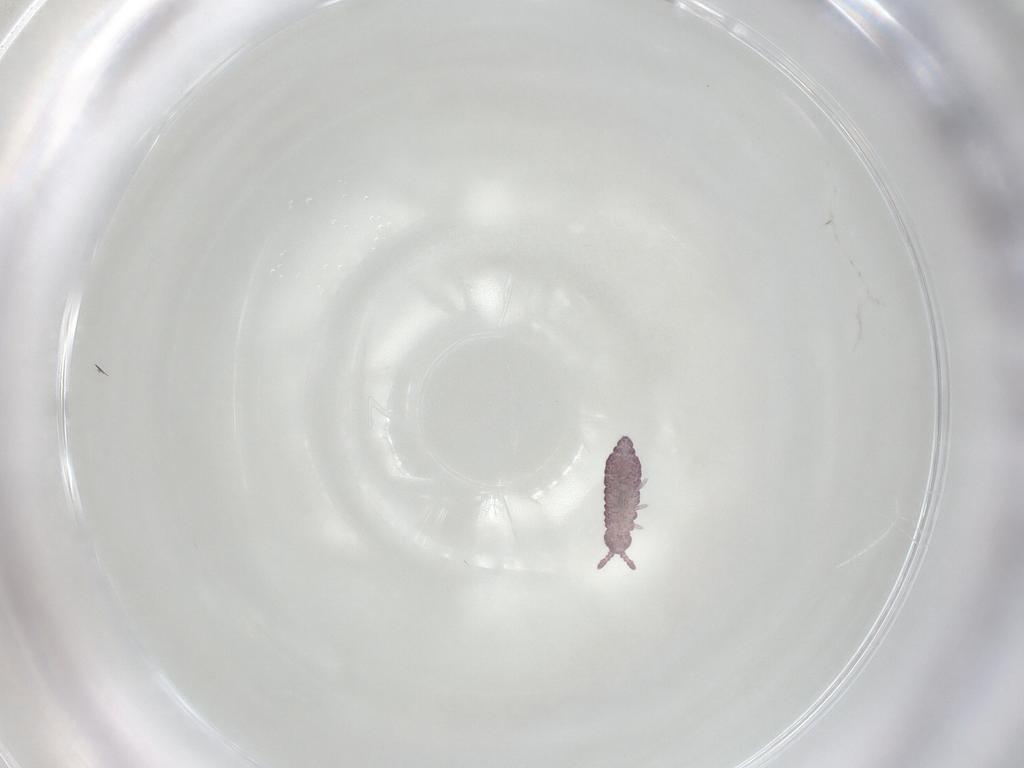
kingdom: Animalia
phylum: Arthropoda
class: Collembola
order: Poduromorpha
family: Hypogastruridae
